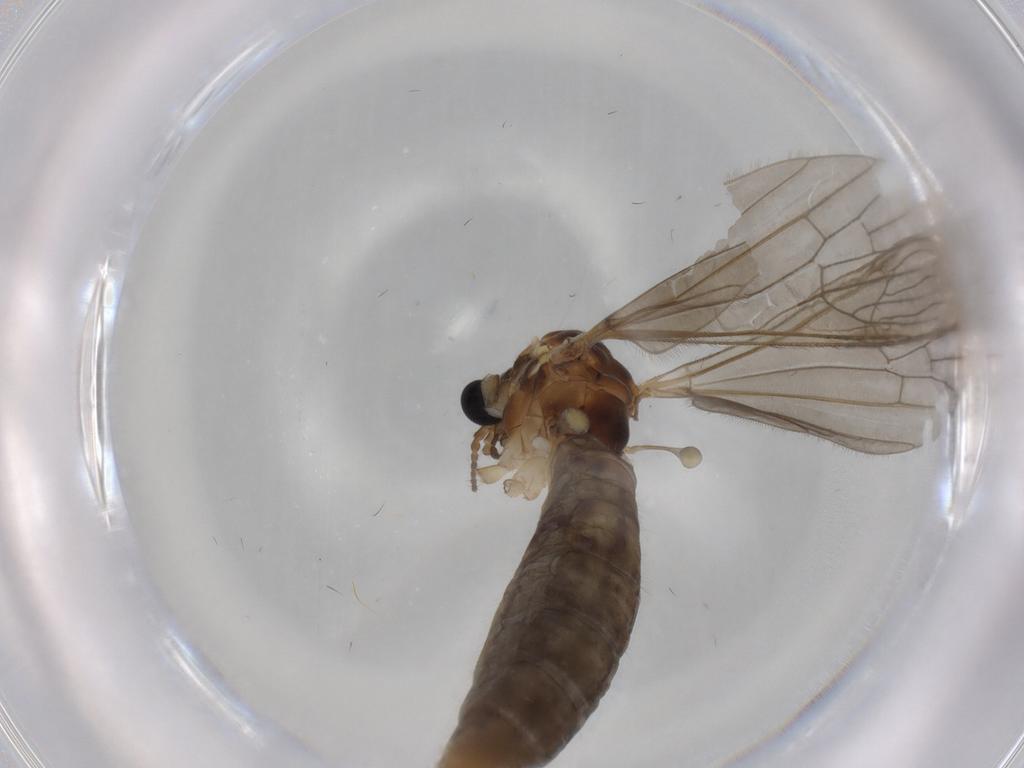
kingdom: Animalia
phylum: Arthropoda
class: Insecta
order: Diptera
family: Limoniidae
